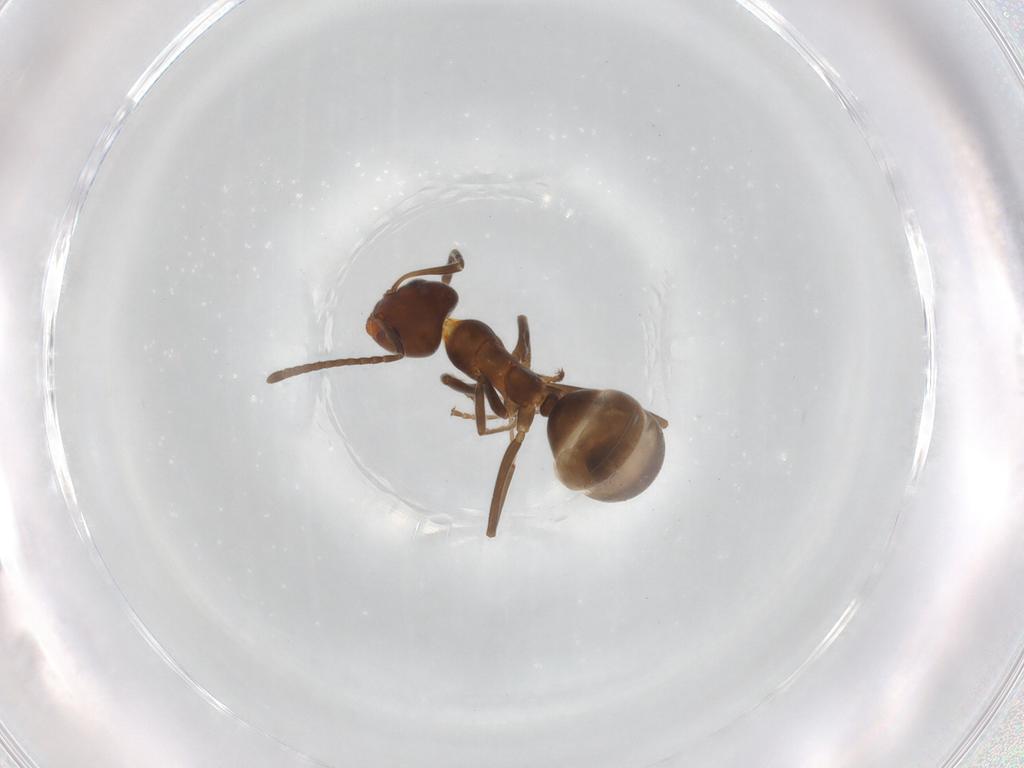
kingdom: Animalia
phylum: Arthropoda
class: Insecta
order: Hymenoptera
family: Formicidae
